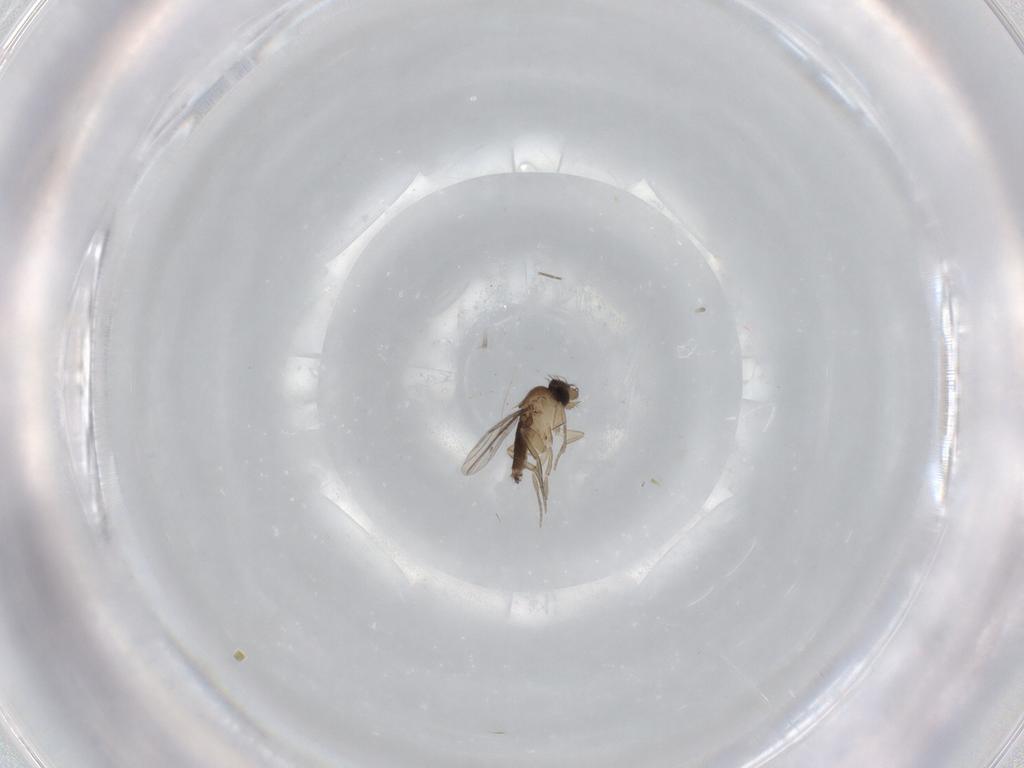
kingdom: Animalia
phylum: Arthropoda
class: Insecta
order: Diptera
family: Phoridae
